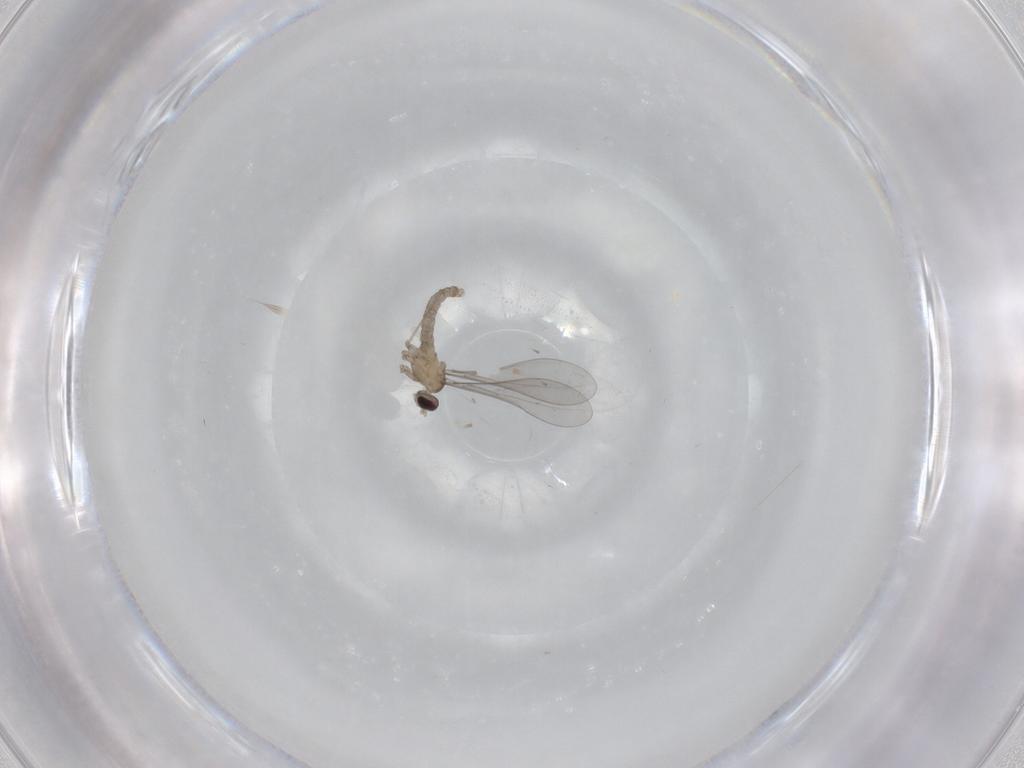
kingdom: Animalia
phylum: Arthropoda
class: Insecta
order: Diptera
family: Cecidomyiidae
